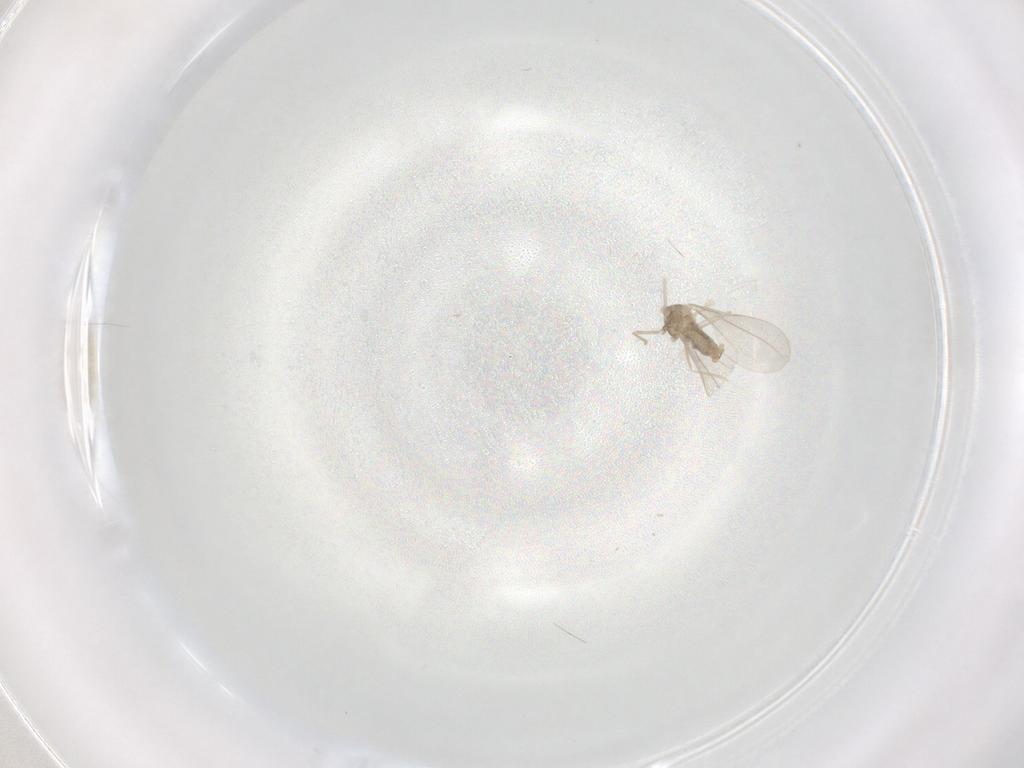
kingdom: Animalia
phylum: Arthropoda
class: Insecta
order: Diptera
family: Cecidomyiidae
